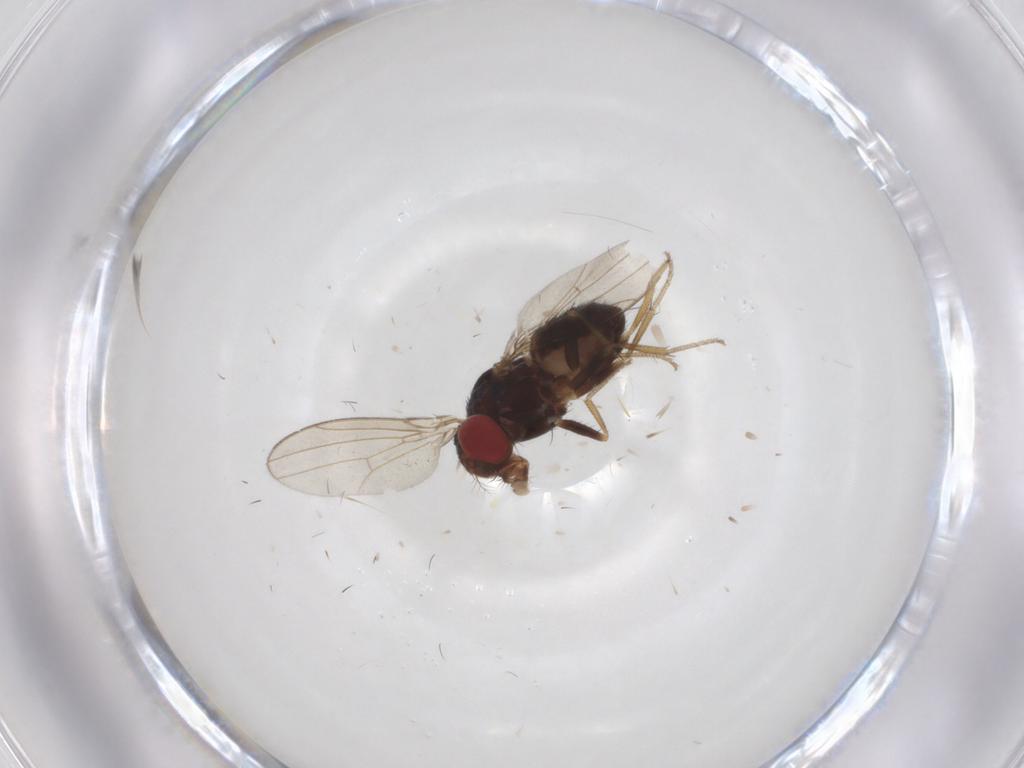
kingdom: Animalia
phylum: Arthropoda
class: Insecta
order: Diptera
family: Drosophilidae
